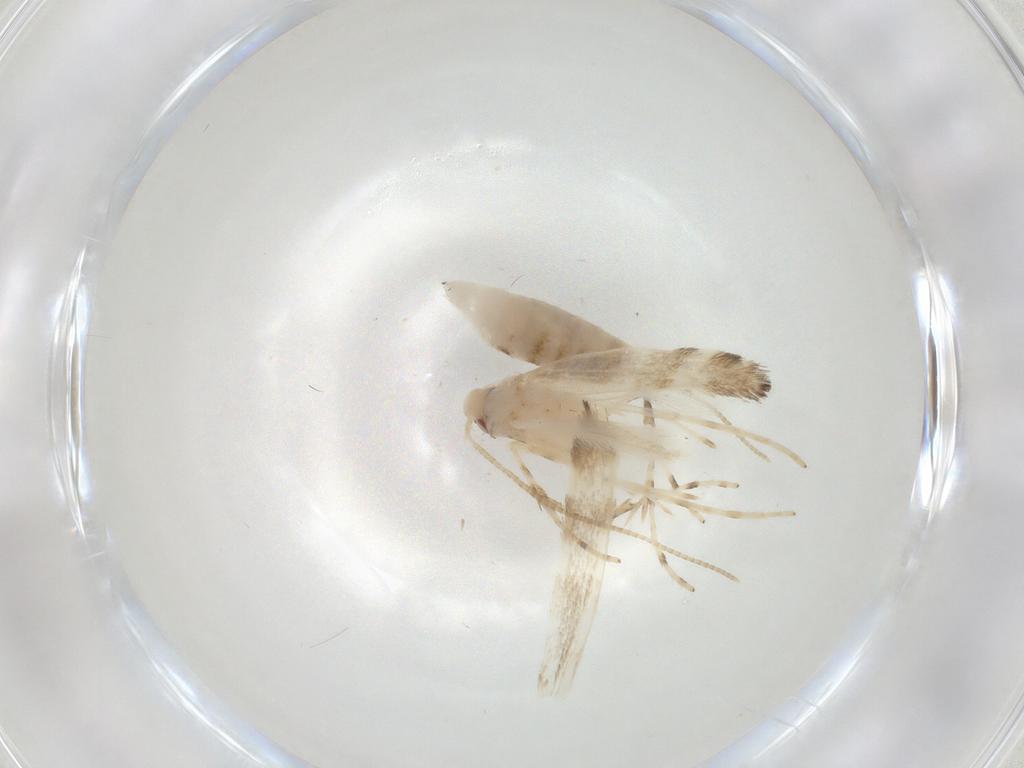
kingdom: Animalia
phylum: Arthropoda
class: Insecta
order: Lepidoptera
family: Gracillariidae
